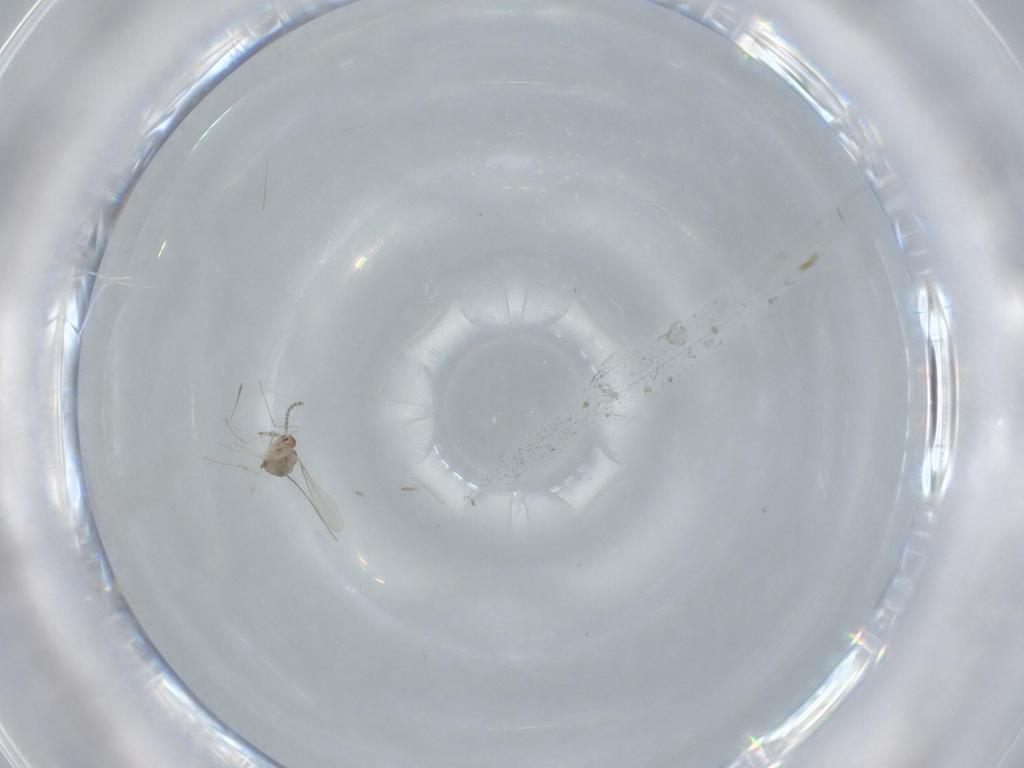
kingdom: Animalia
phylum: Arthropoda
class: Insecta
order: Diptera
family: Cecidomyiidae
